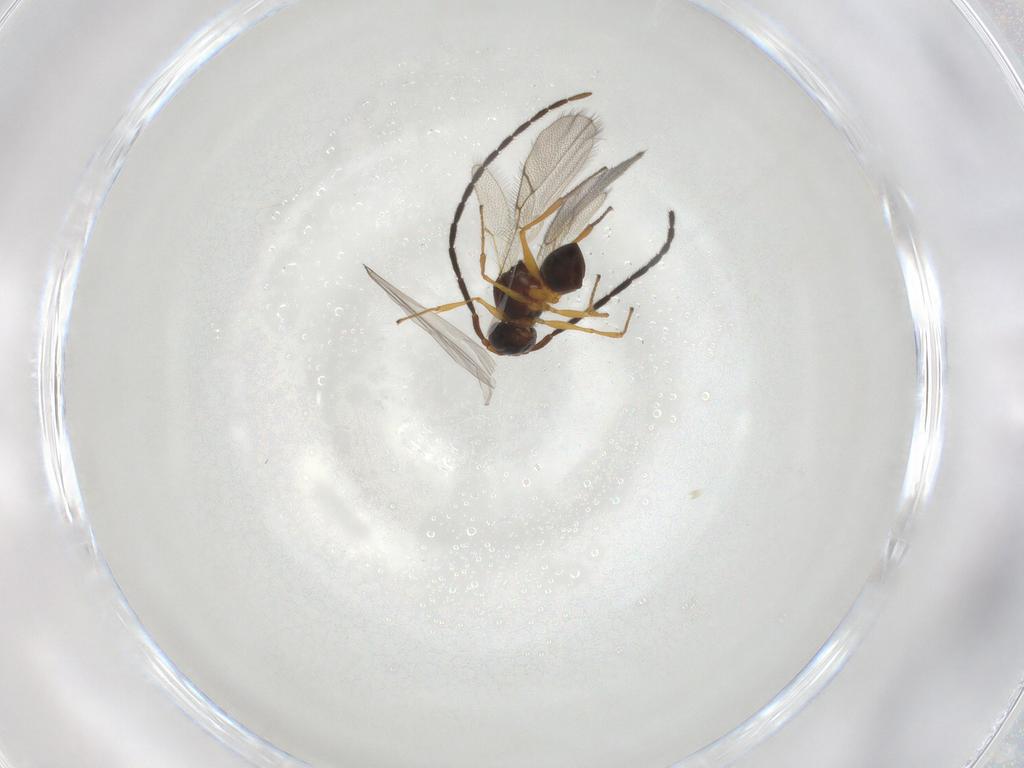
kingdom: Animalia
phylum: Arthropoda
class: Insecta
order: Hymenoptera
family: Figitidae
